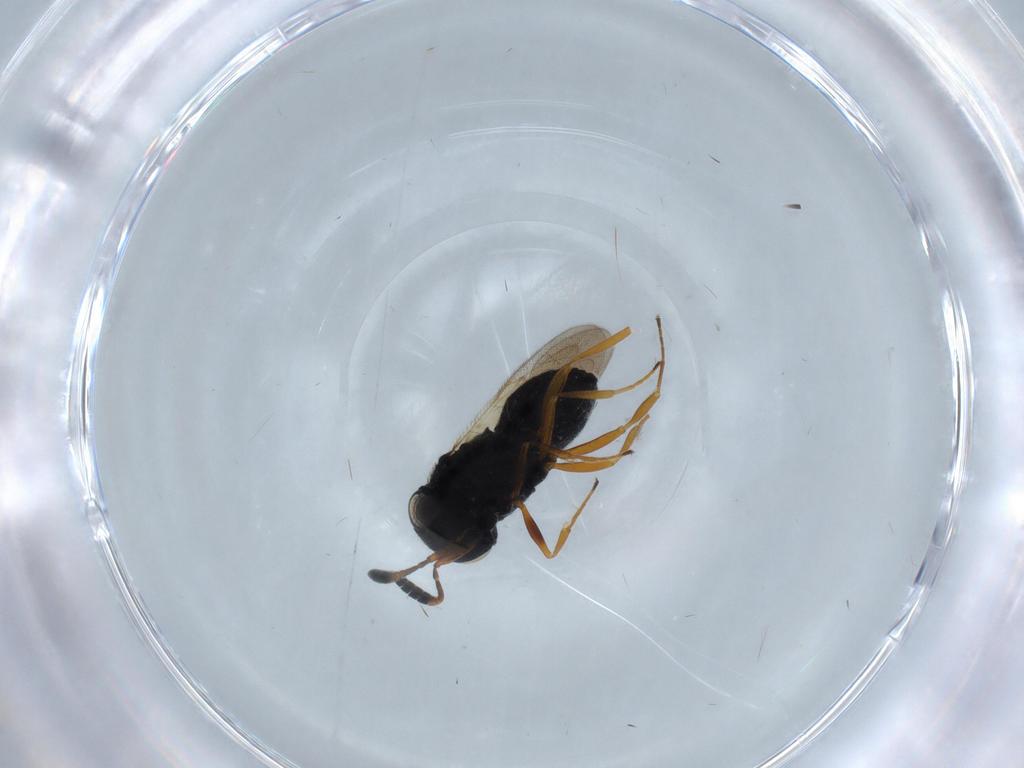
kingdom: Animalia
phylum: Arthropoda
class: Insecta
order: Hymenoptera
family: Scelionidae
